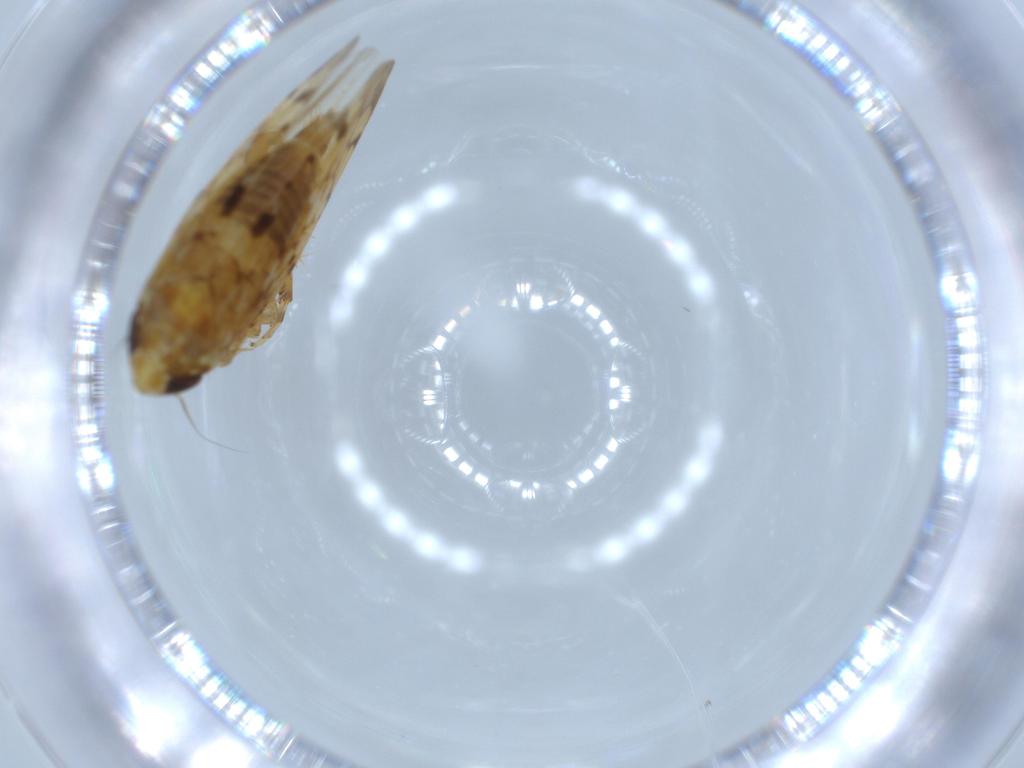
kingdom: Animalia
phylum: Arthropoda
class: Insecta
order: Hemiptera
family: Cicadellidae
